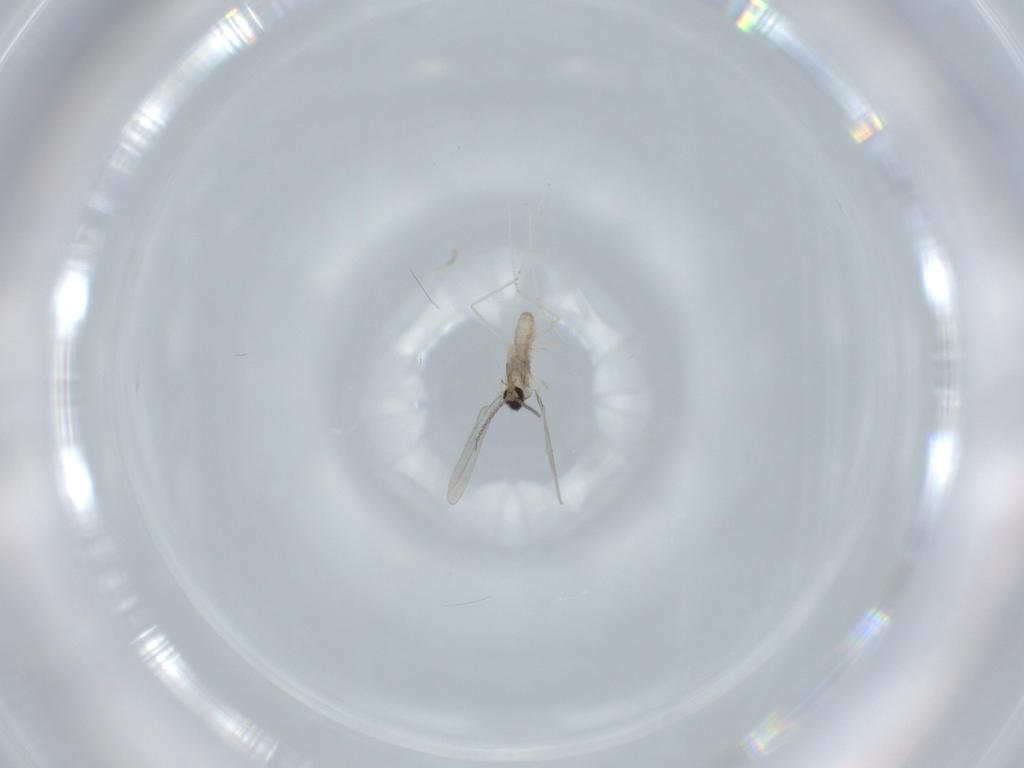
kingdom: Animalia
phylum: Arthropoda
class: Insecta
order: Diptera
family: Cecidomyiidae
